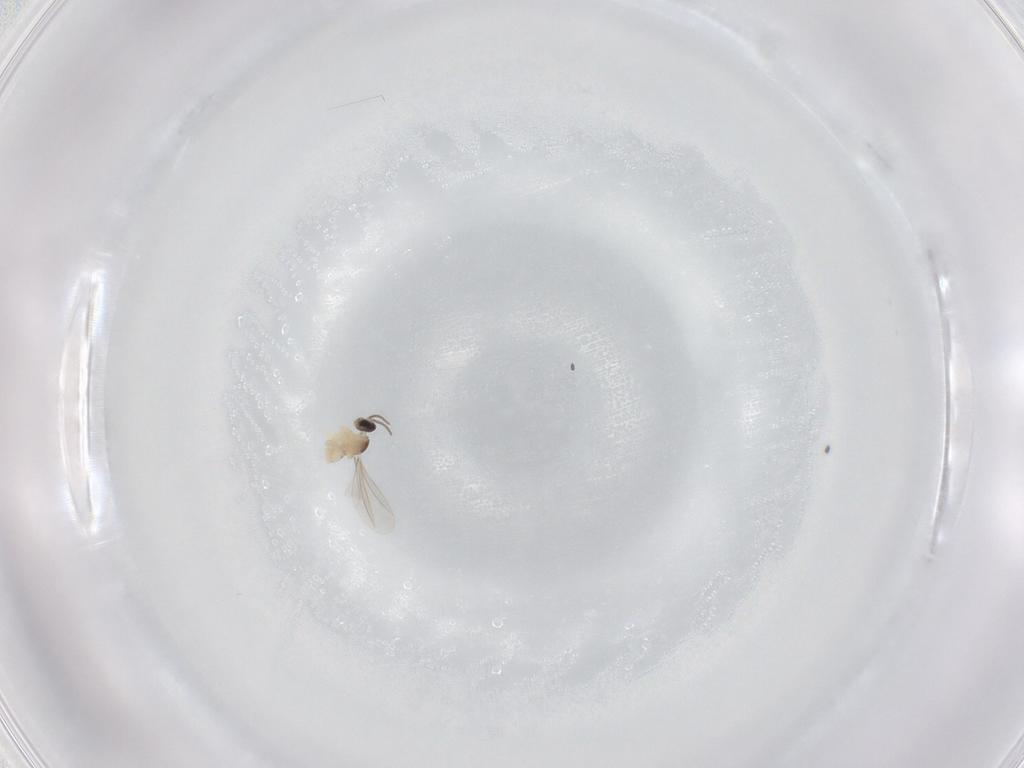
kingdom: Animalia
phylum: Arthropoda
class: Insecta
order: Diptera
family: Cecidomyiidae
